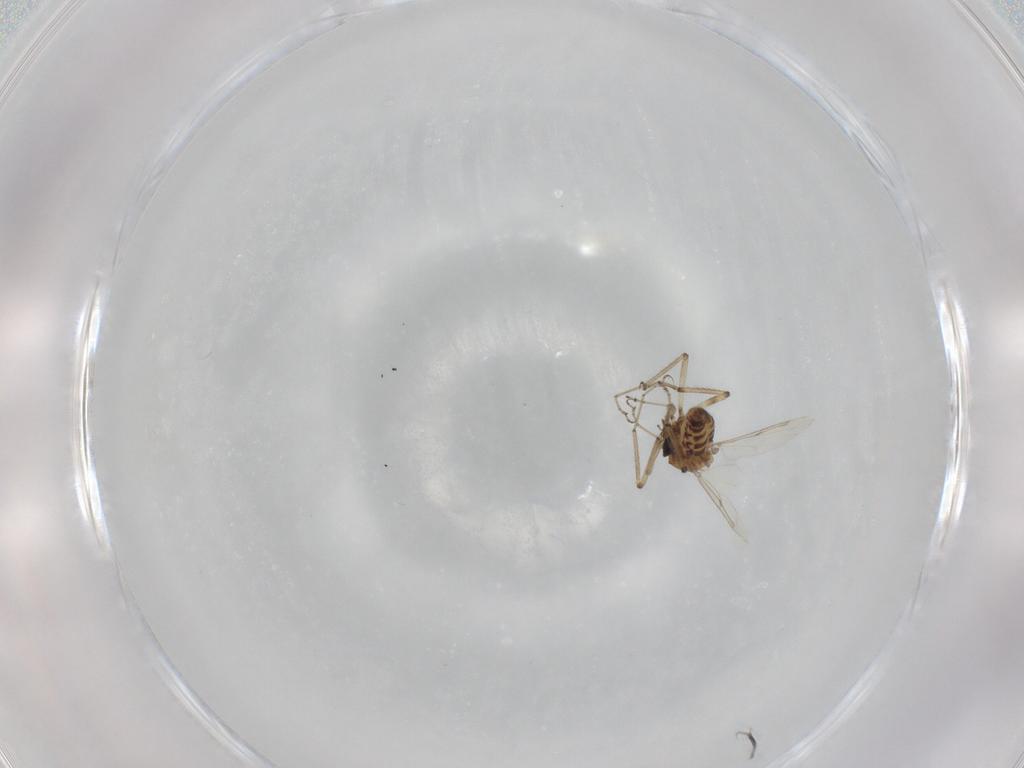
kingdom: Animalia
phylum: Arthropoda
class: Insecta
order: Diptera
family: Ceratopogonidae
